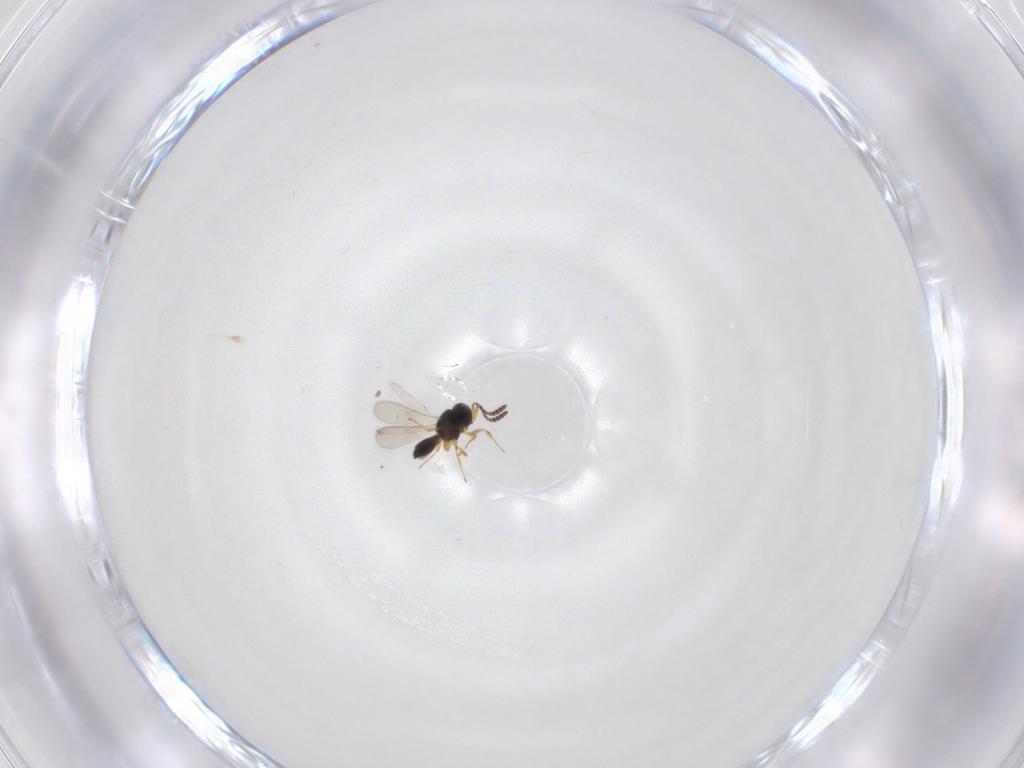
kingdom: Animalia
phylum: Arthropoda
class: Insecta
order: Hymenoptera
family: Scelionidae
